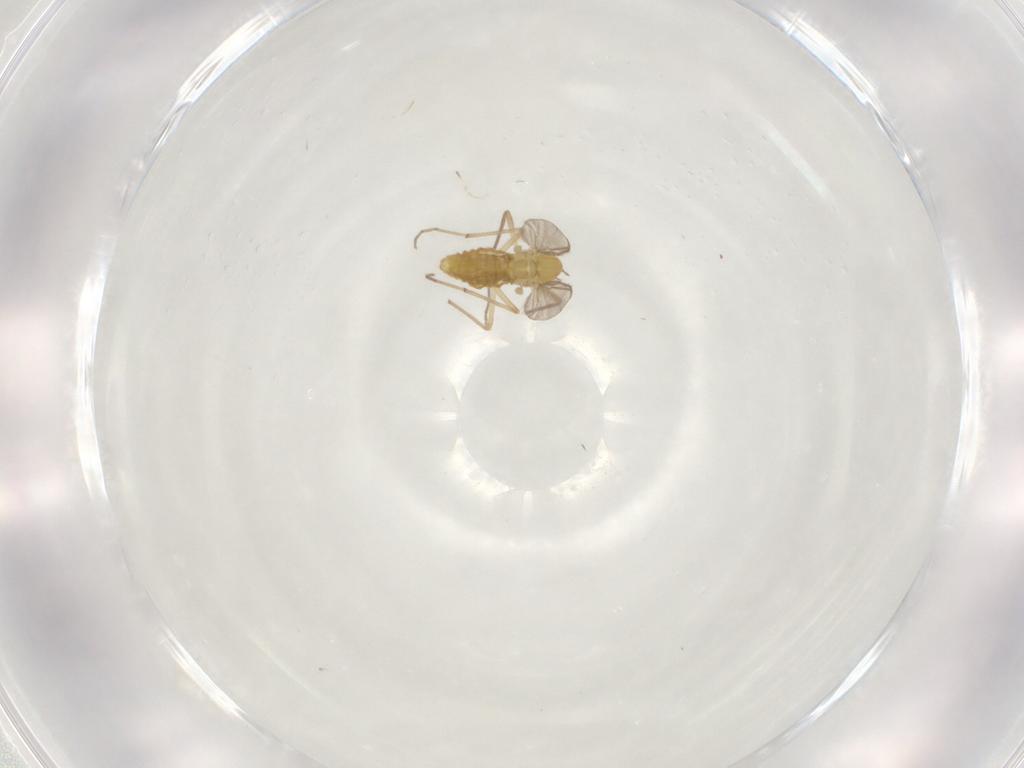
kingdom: Animalia
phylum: Arthropoda
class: Insecta
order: Diptera
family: Chironomidae
